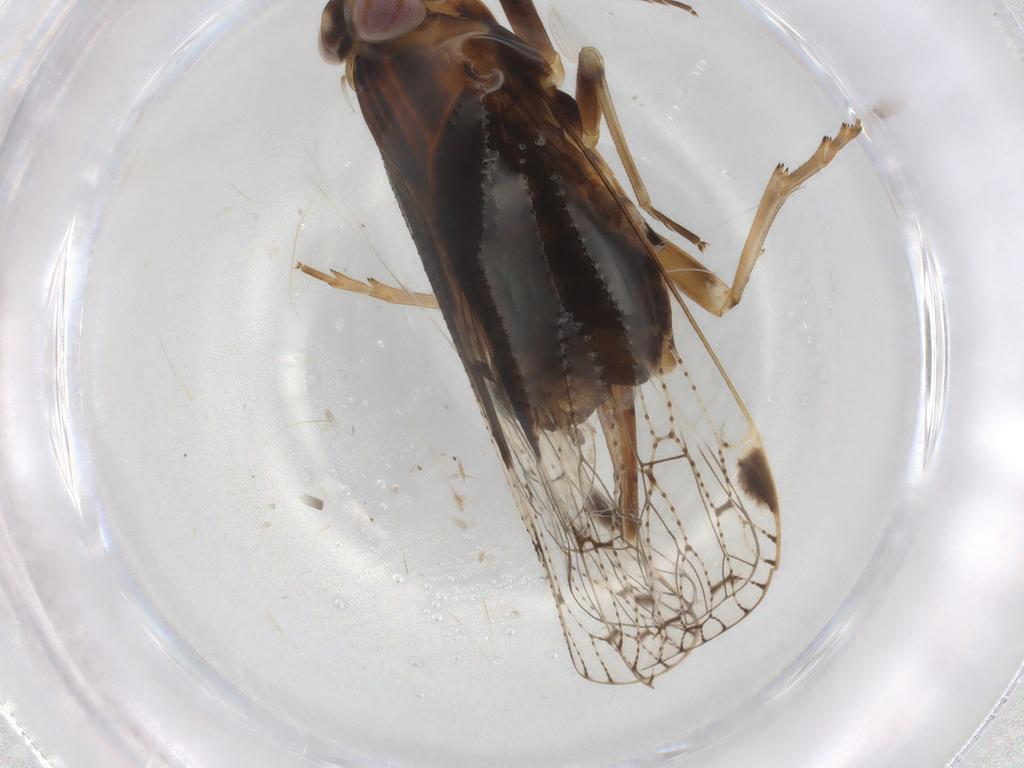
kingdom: Animalia
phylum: Arthropoda
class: Insecta
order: Hemiptera
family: Cixiidae
